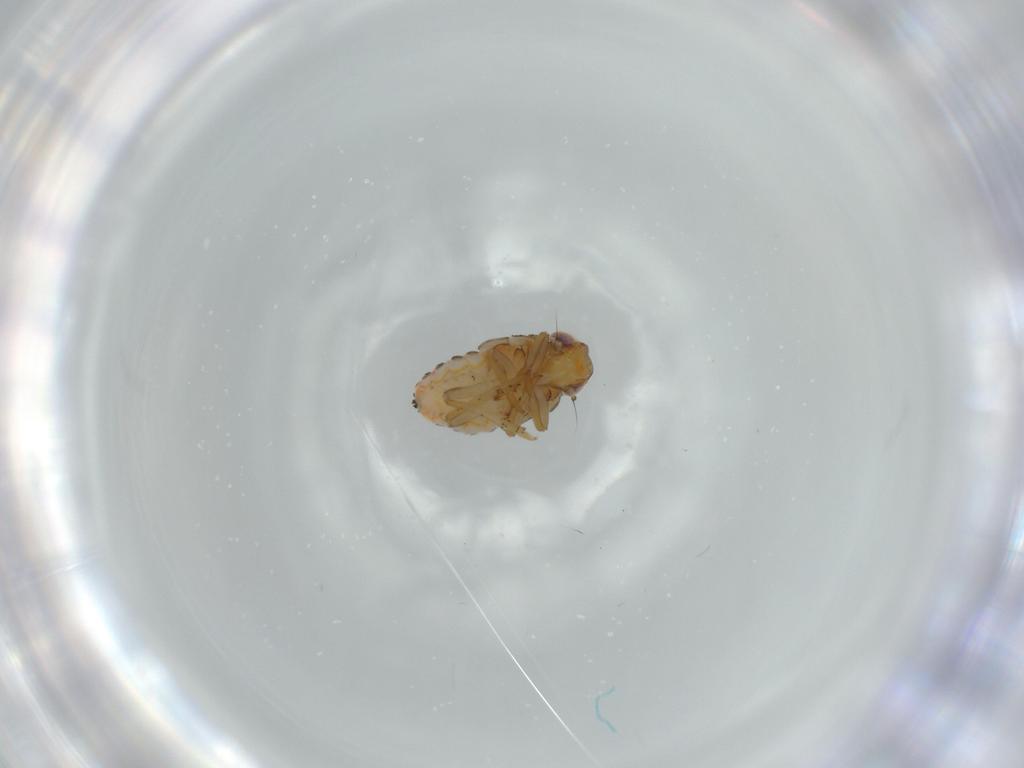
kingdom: Animalia
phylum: Arthropoda
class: Insecta
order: Hemiptera
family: Issidae
